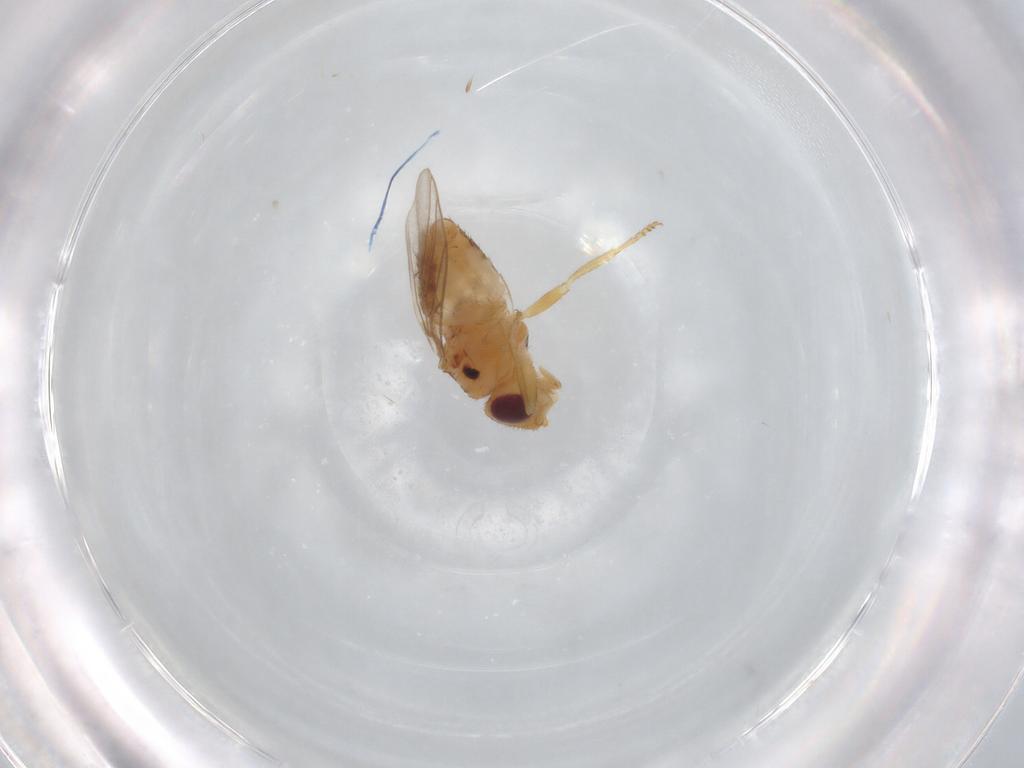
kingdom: Animalia
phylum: Arthropoda
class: Insecta
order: Diptera
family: Chloropidae
